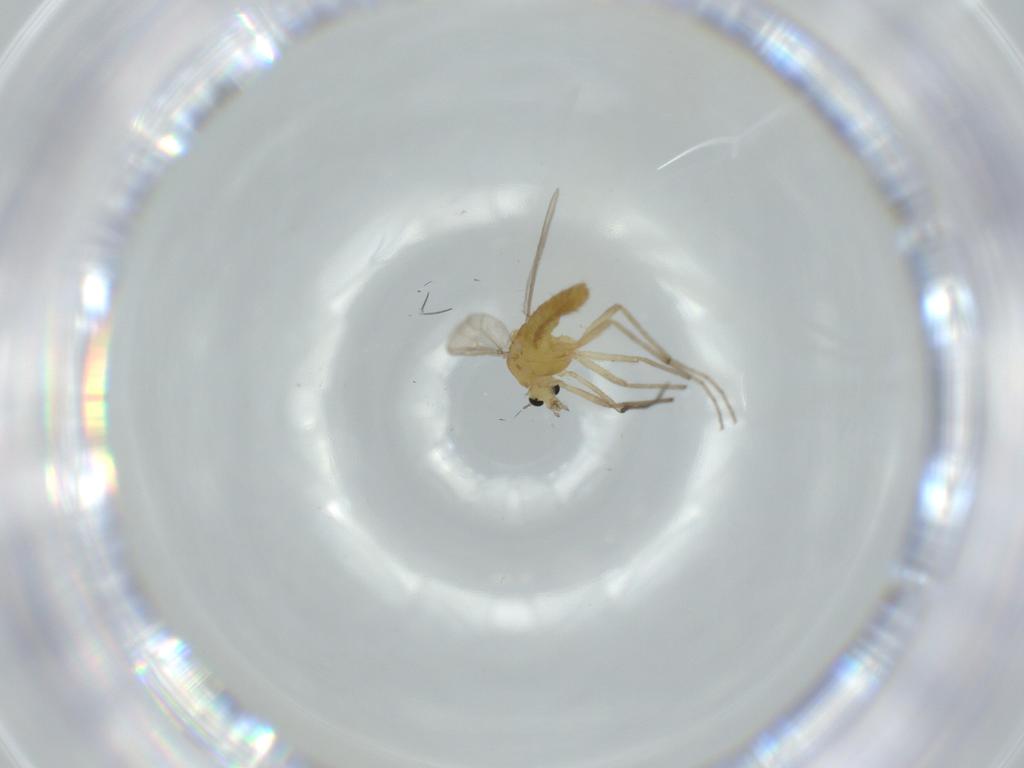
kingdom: Animalia
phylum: Arthropoda
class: Insecta
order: Diptera
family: Chironomidae
